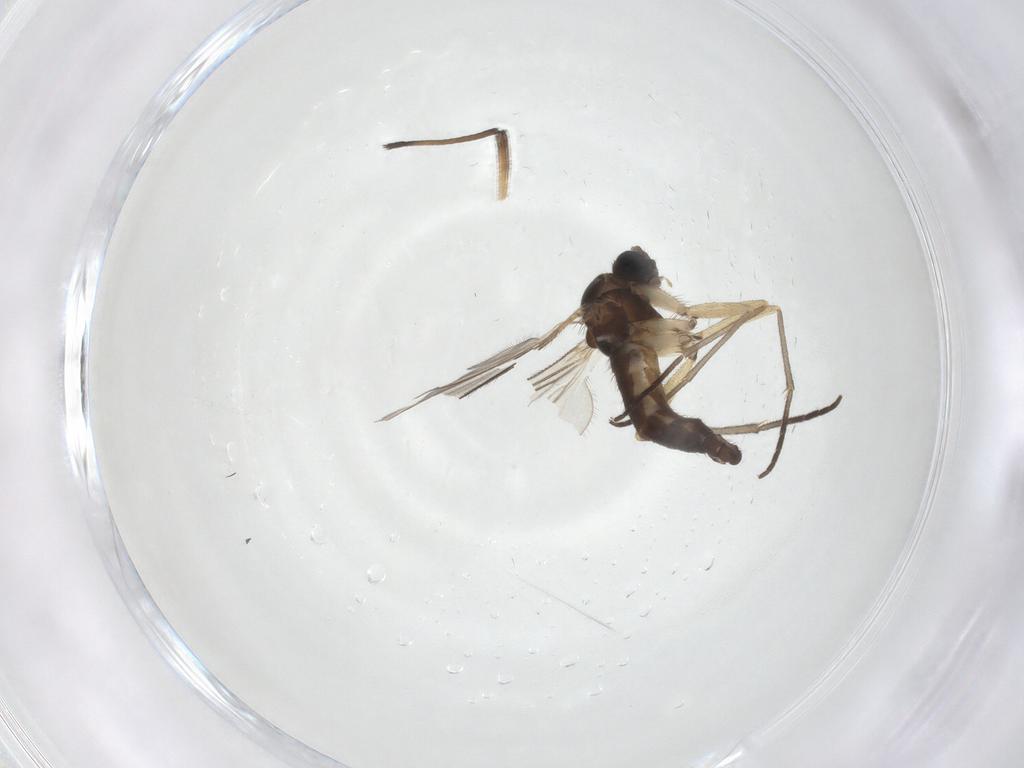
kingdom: Animalia
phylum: Arthropoda
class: Insecta
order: Diptera
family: Sciaridae
